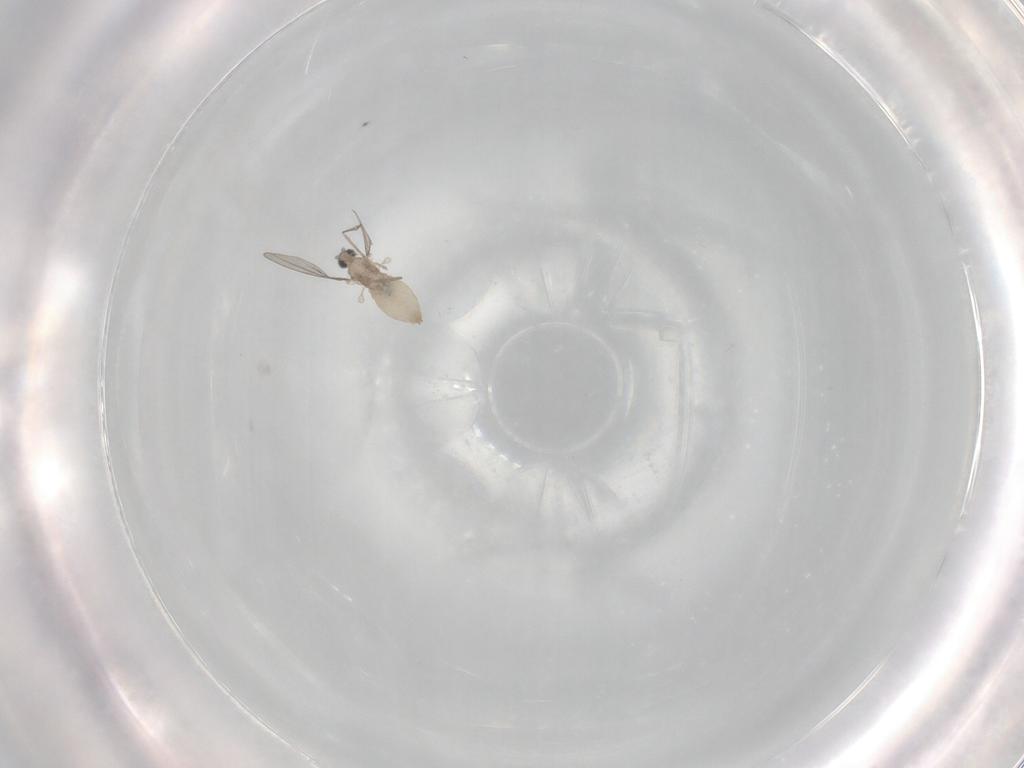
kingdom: Animalia
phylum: Arthropoda
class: Insecta
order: Diptera
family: Cecidomyiidae
